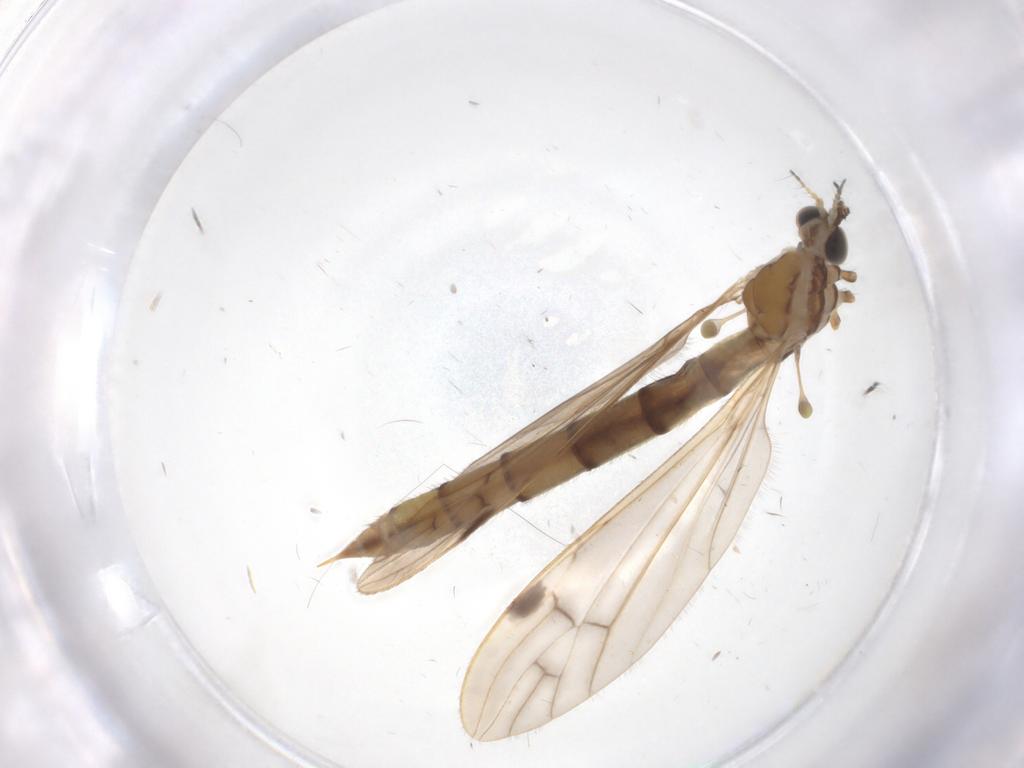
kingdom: Animalia
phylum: Arthropoda
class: Insecta
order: Diptera
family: Limoniidae
